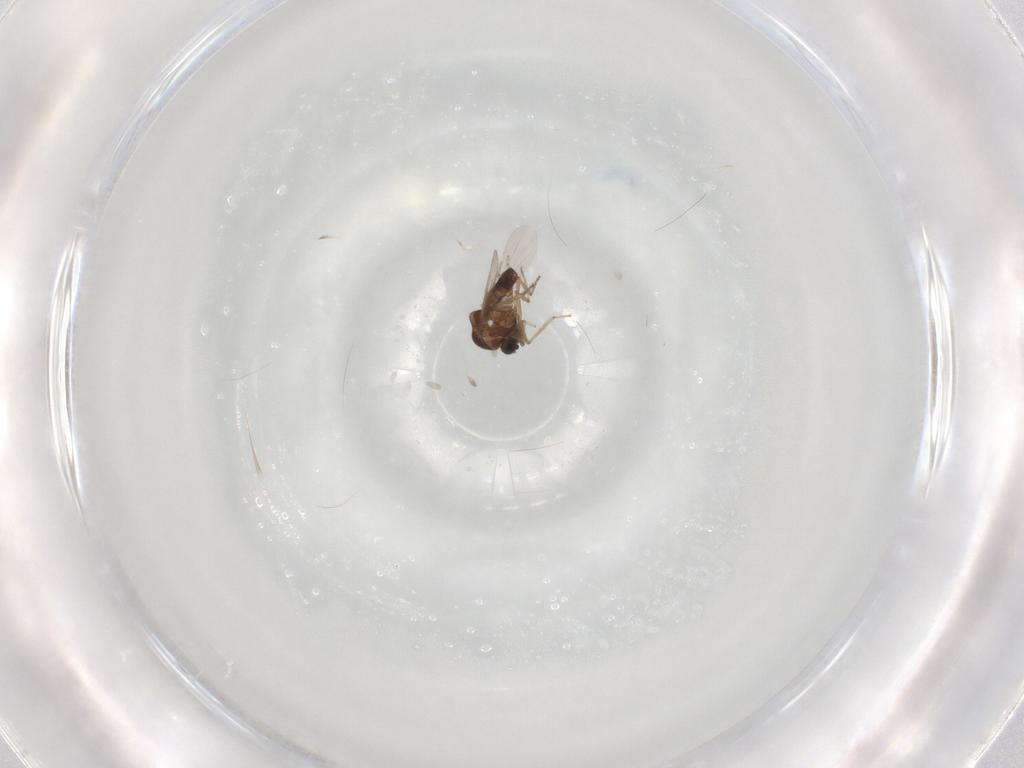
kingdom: Animalia
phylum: Arthropoda
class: Insecta
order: Diptera
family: Ceratopogonidae
